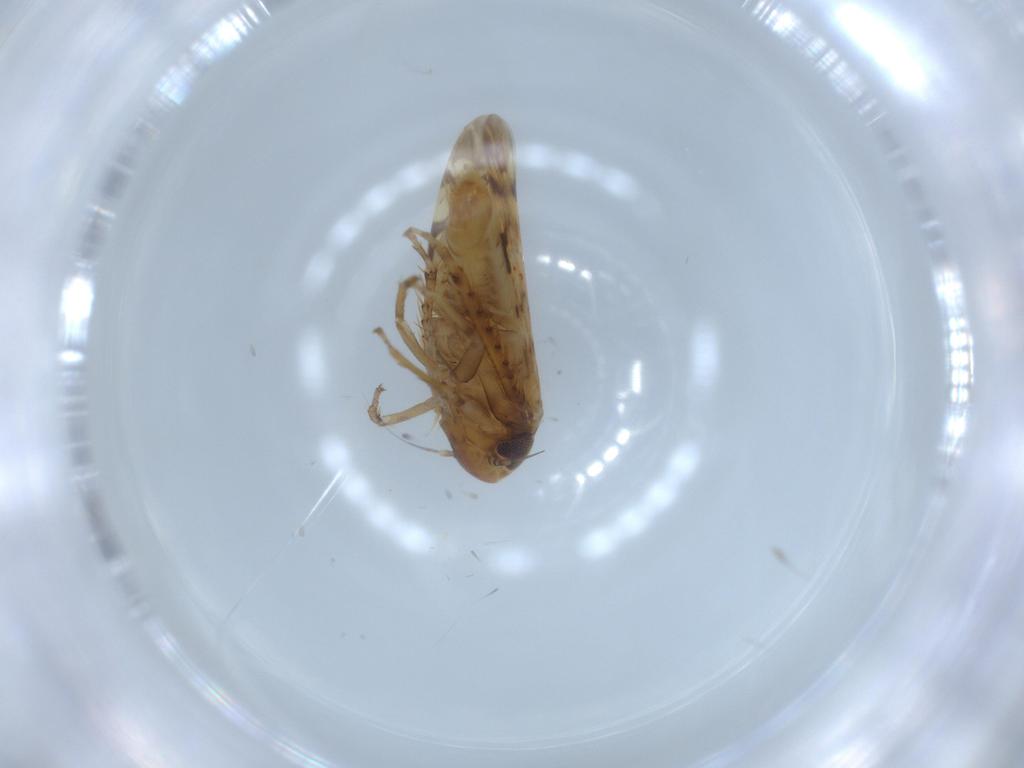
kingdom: Animalia
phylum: Arthropoda
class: Insecta
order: Hemiptera
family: Cicadellidae
